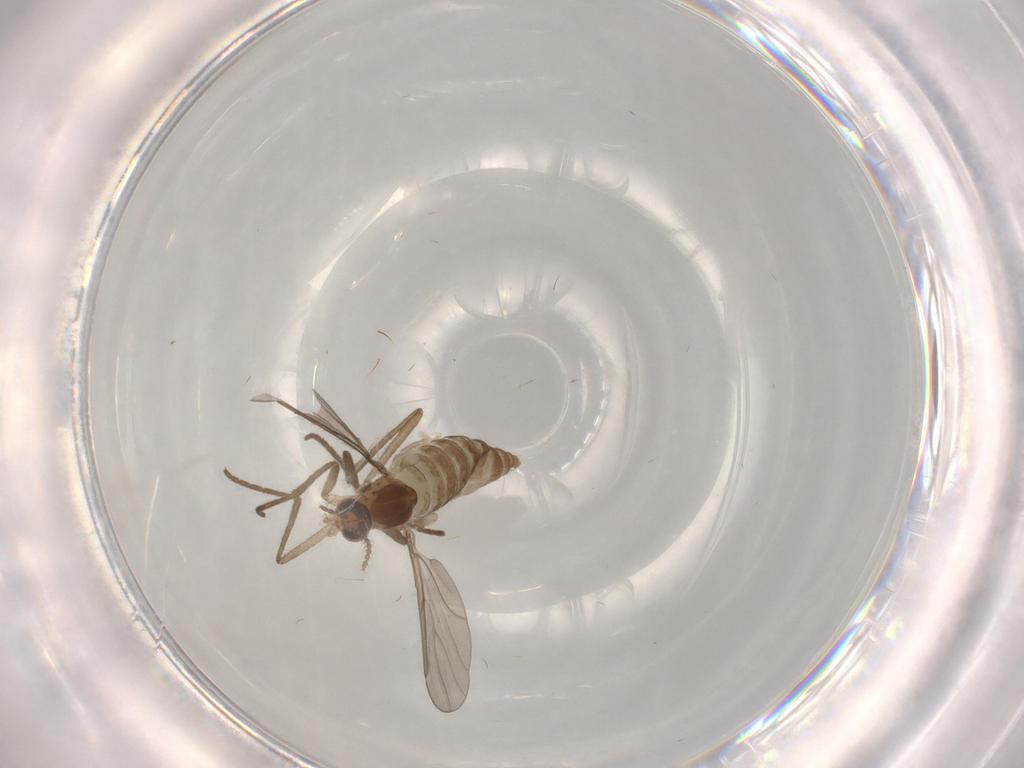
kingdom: Animalia
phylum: Arthropoda
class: Insecta
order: Diptera
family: Cecidomyiidae
